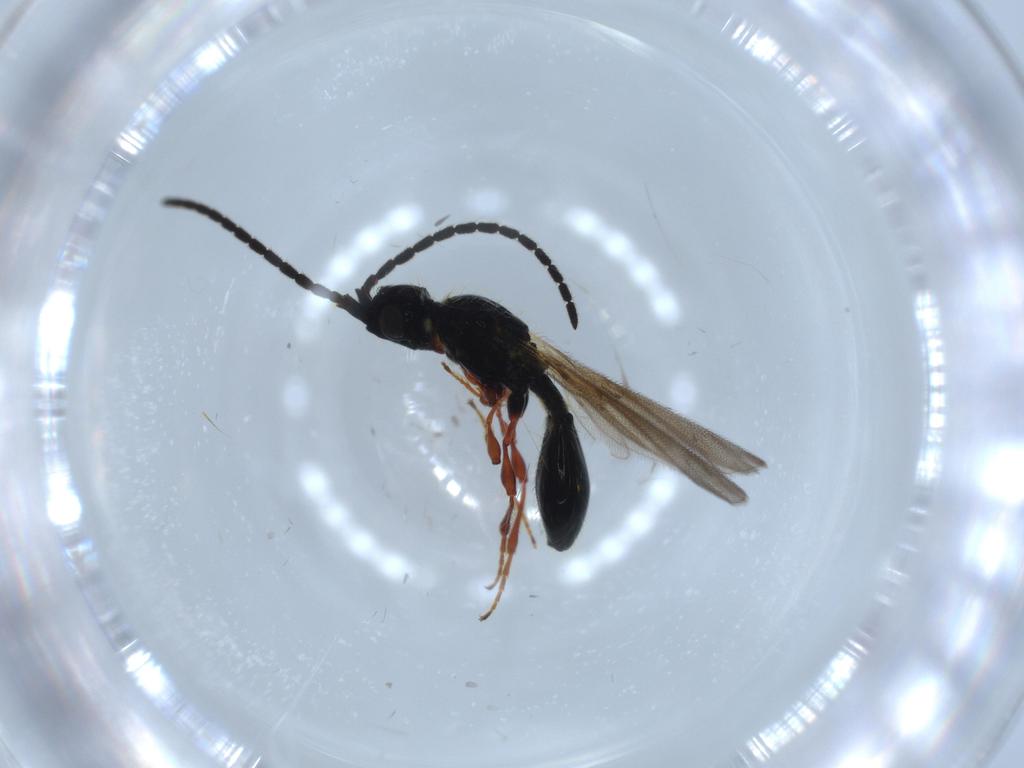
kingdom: Animalia
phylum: Arthropoda
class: Insecta
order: Hymenoptera
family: Diapriidae
